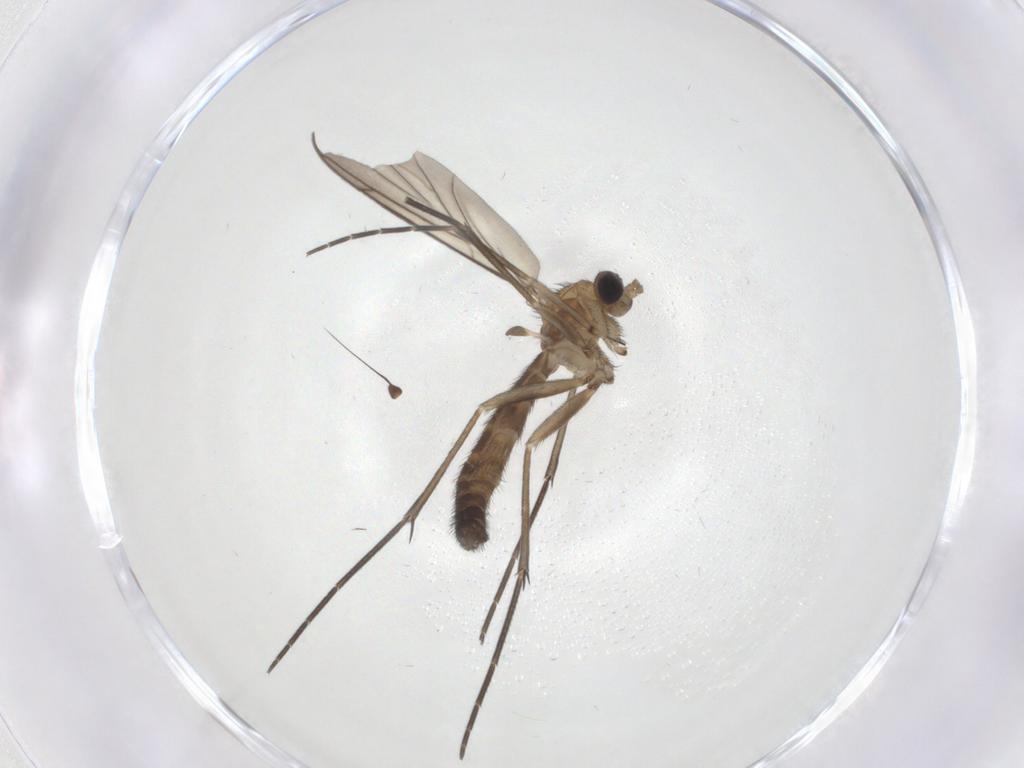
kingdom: Animalia
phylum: Arthropoda
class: Insecta
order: Diptera
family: Keroplatidae
